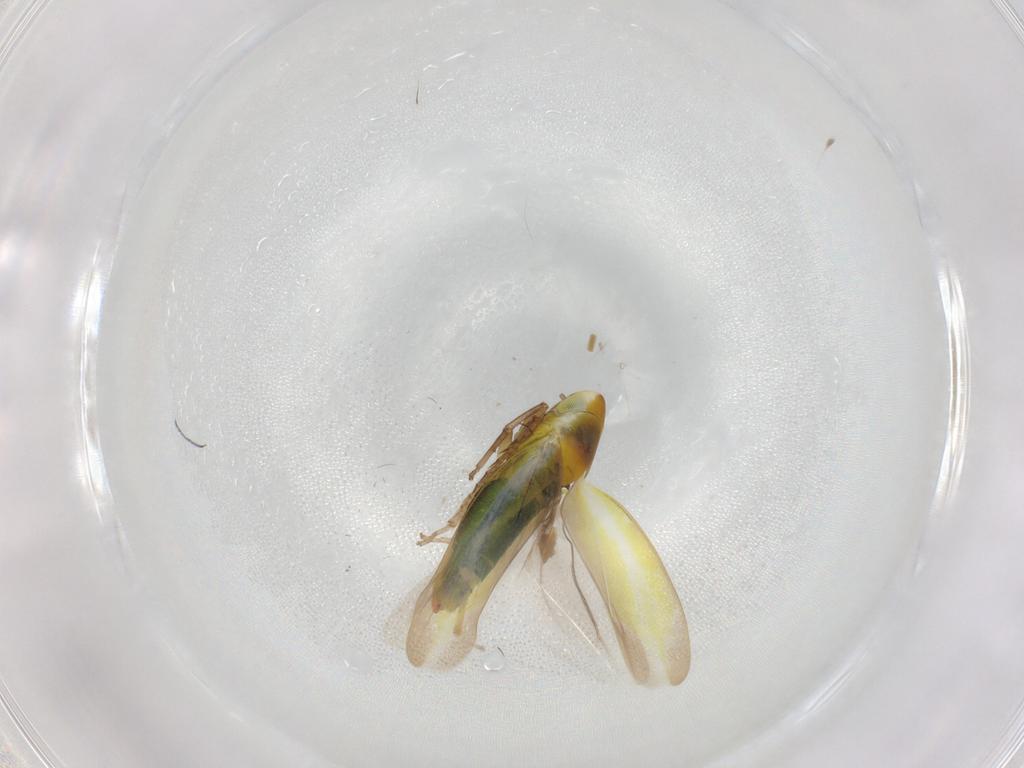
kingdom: Animalia
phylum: Arthropoda
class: Insecta
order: Hemiptera
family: Cicadellidae
